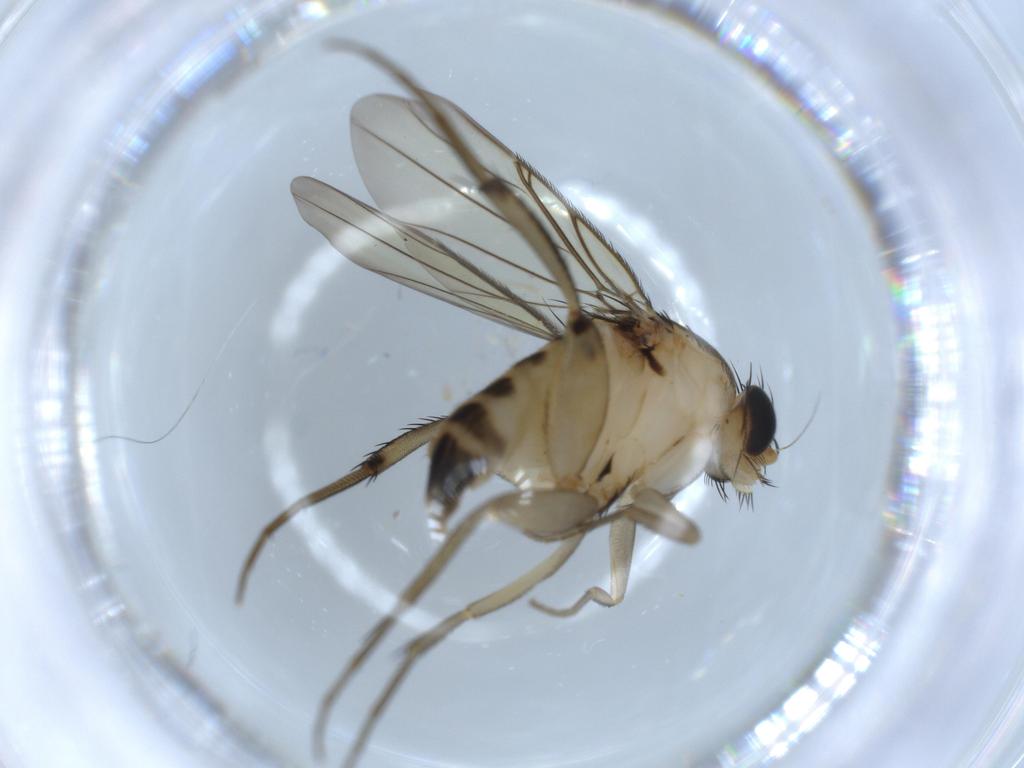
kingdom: Animalia
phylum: Arthropoda
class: Insecta
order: Diptera
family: Phoridae
